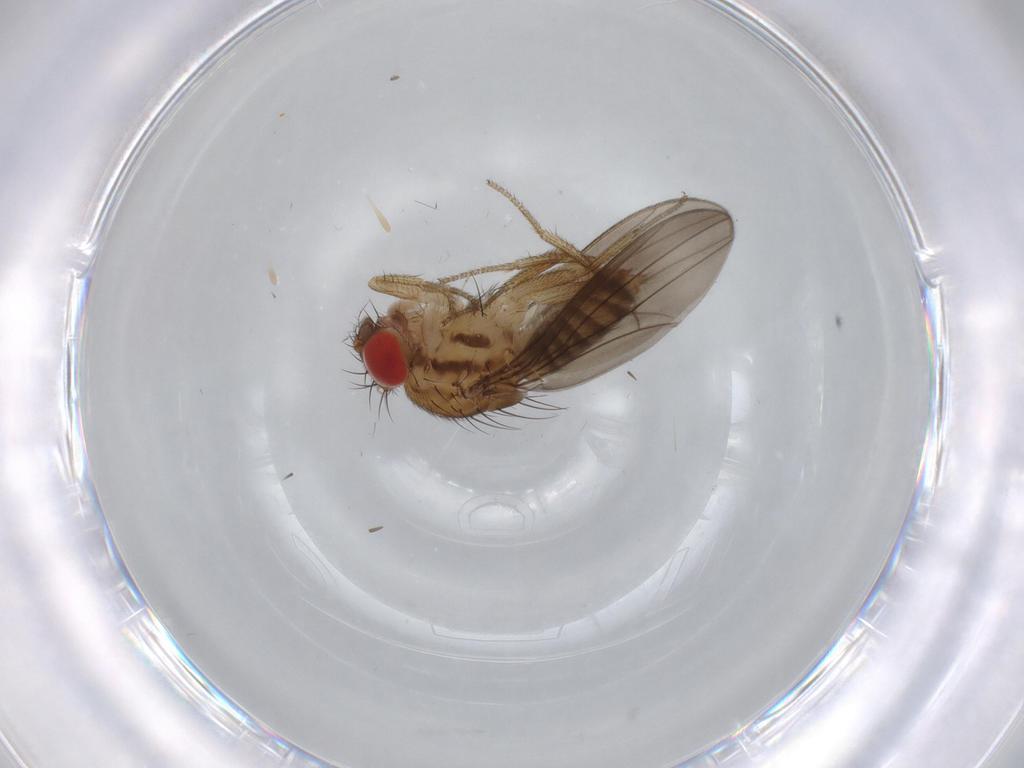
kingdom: Animalia
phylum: Arthropoda
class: Insecta
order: Diptera
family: Drosophilidae
